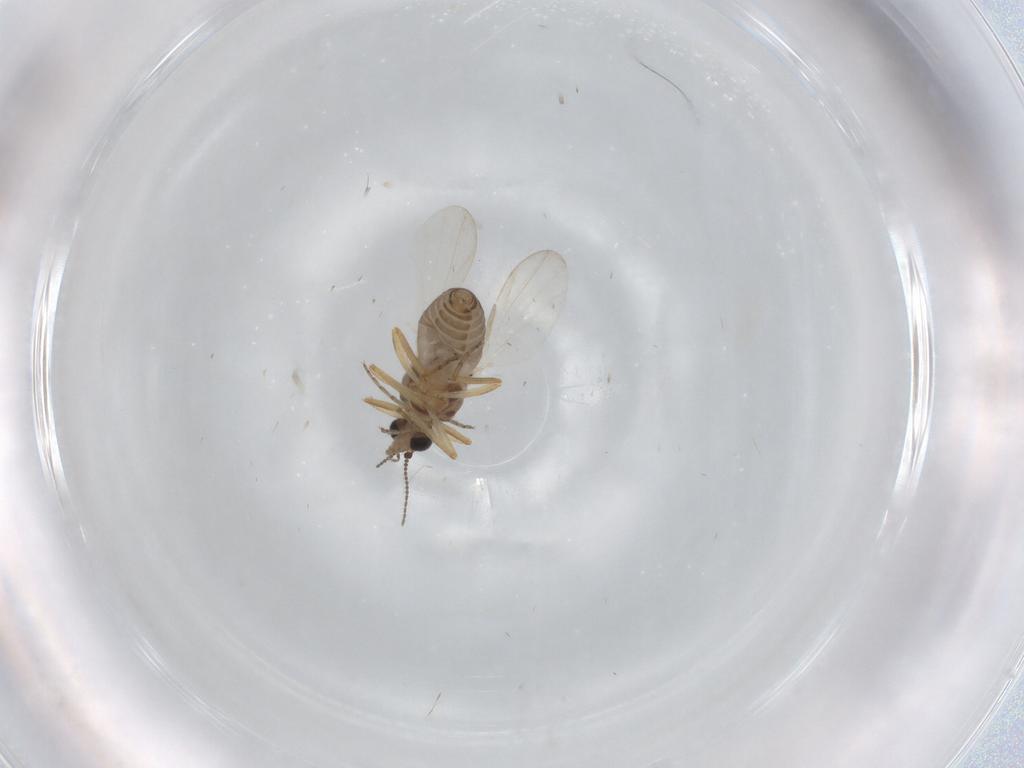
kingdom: Animalia
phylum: Arthropoda
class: Insecta
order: Diptera
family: Ceratopogonidae
